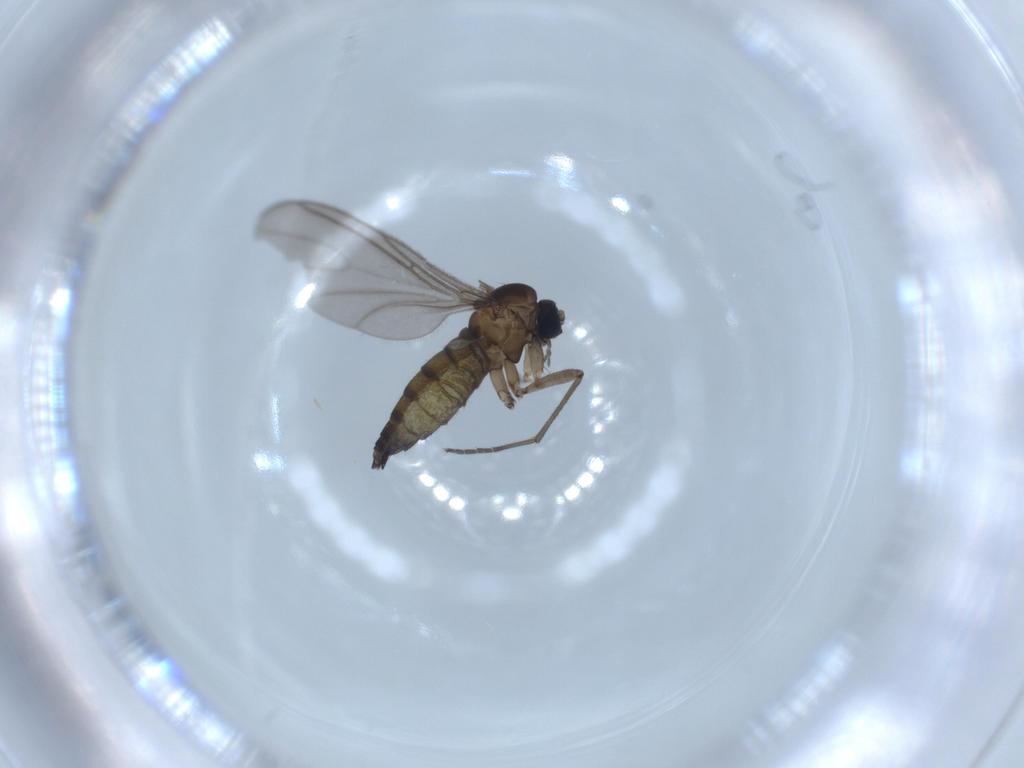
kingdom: Animalia
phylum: Arthropoda
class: Insecta
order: Diptera
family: Sciaridae
